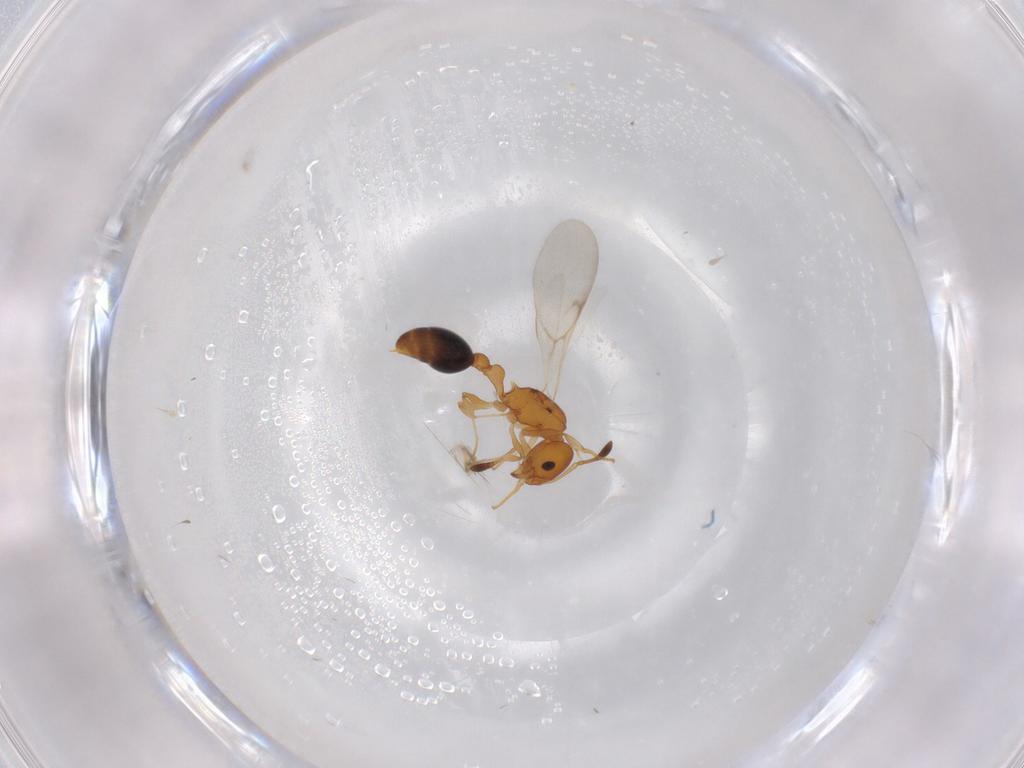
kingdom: Animalia
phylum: Arthropoda
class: Insecta
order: Hymenoptera
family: Formicidae
